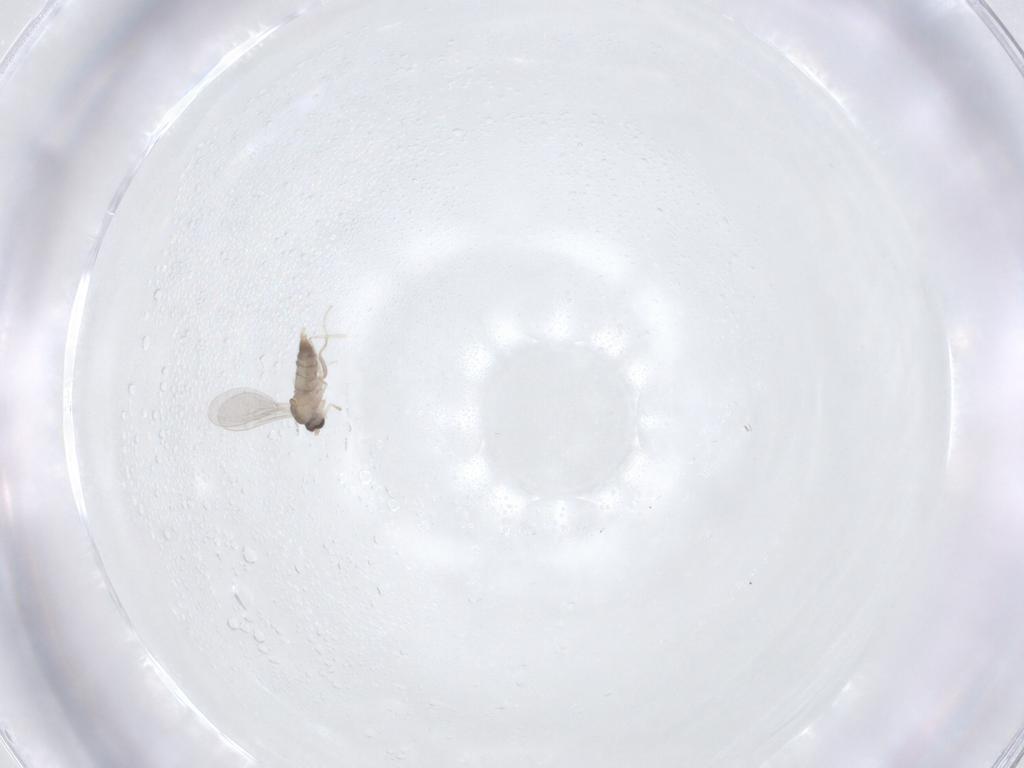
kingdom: Animalia
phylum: Arthropoda
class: Insecta
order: Diptera
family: Cecidomyiidae
